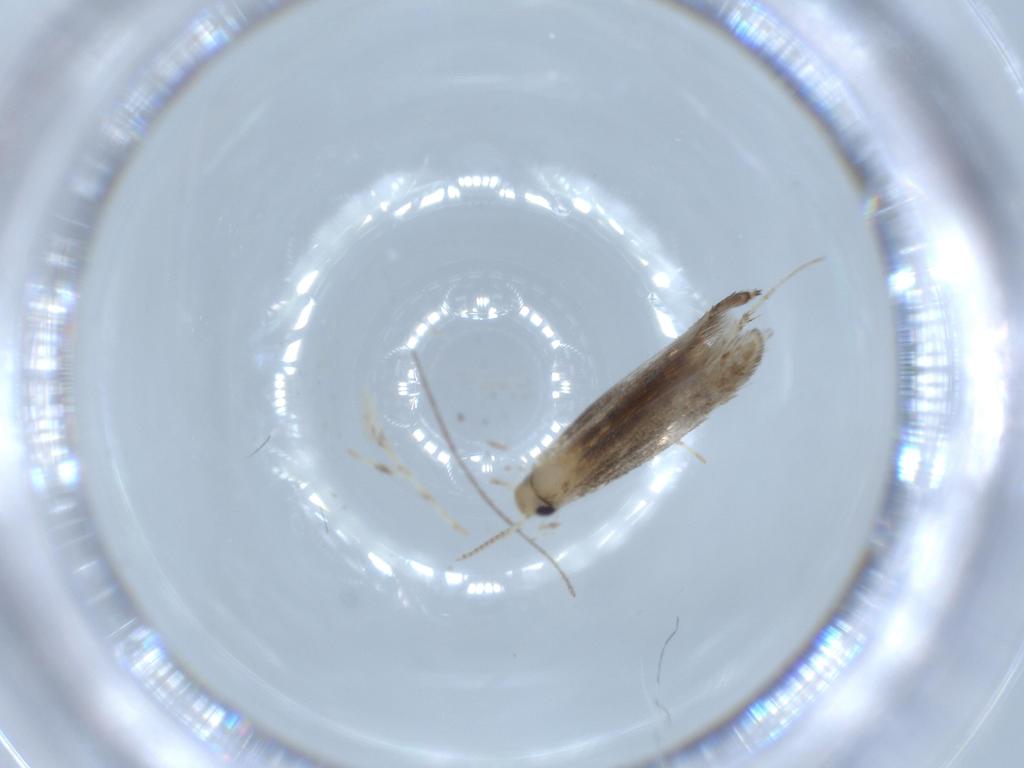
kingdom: Animalia
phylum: Arthropoda
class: Insecta
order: Lepidoptera
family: Gracillariidae
